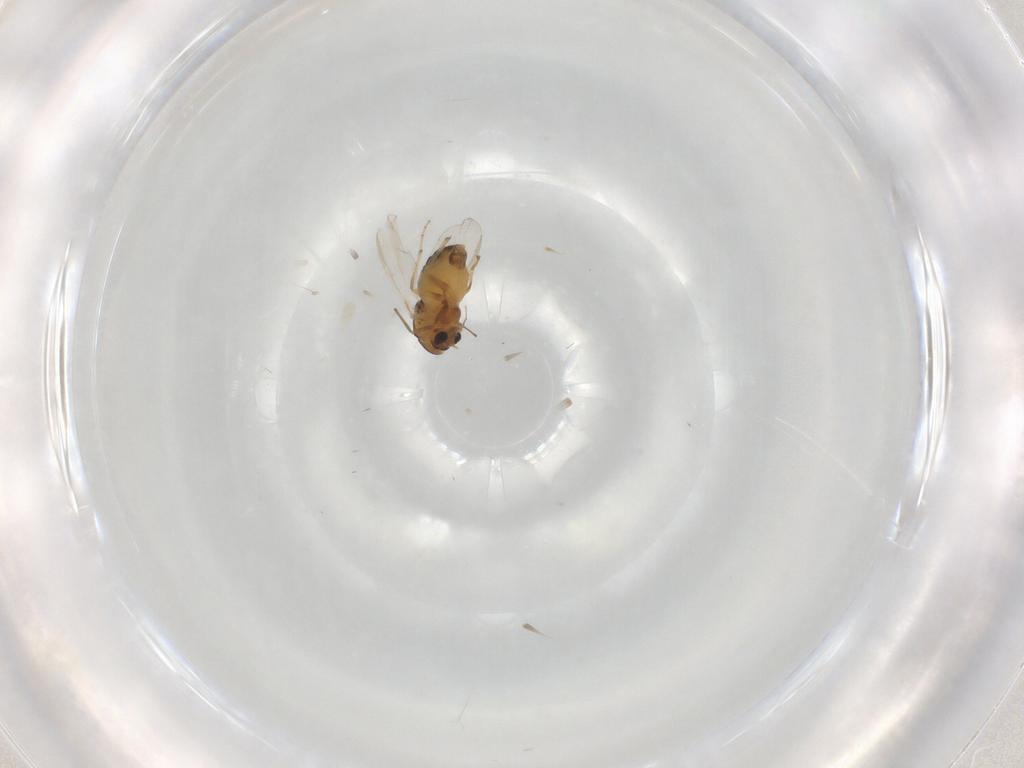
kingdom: Animalia
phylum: Arthropoda
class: Insecta
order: Diptera
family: Chironomidae
